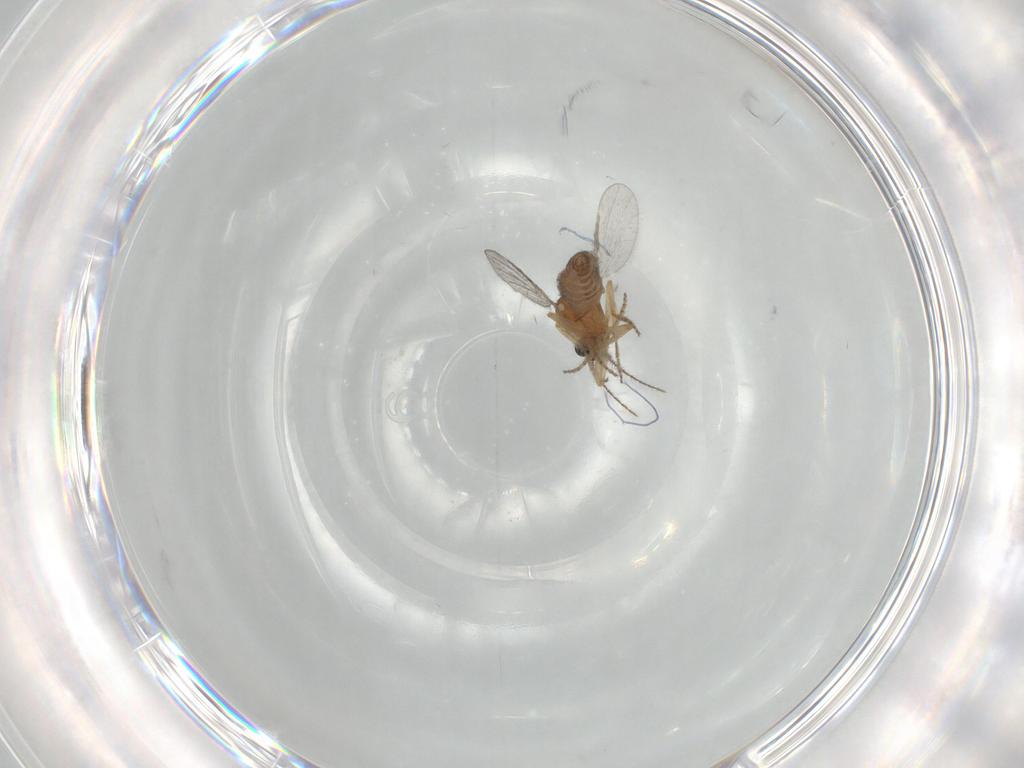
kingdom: Animalia
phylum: Arthropoda
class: Insecta
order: Diptera
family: Ceratopogonidae
